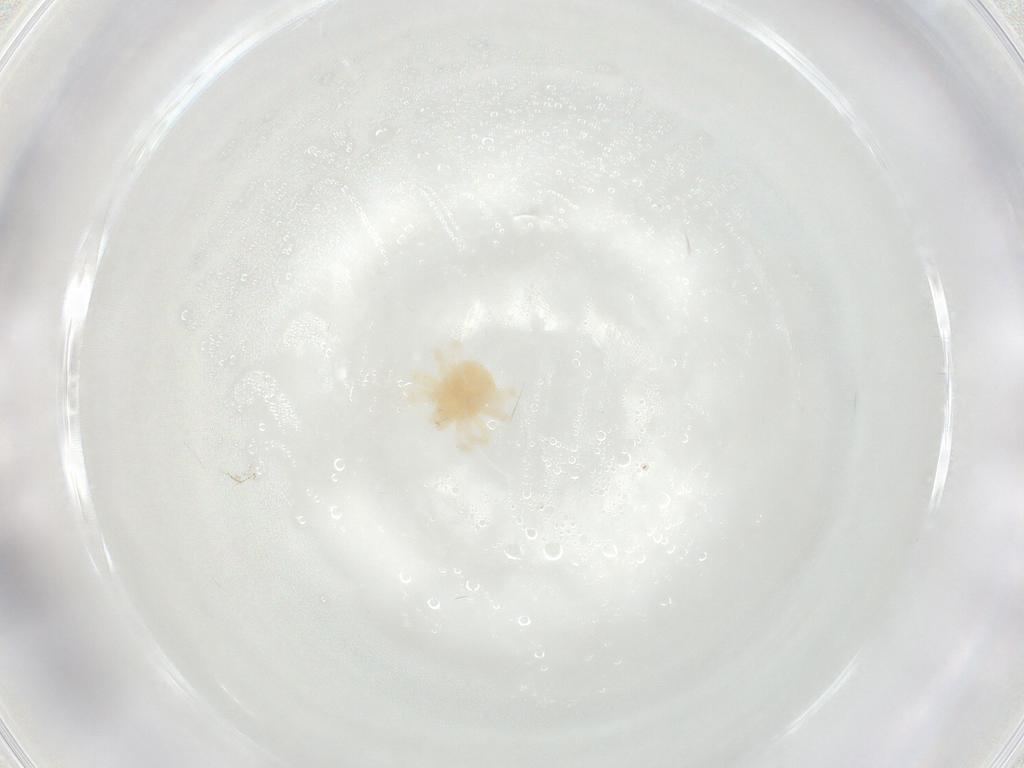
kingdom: Animalia
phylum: Arthropoda
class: Arachnida
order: Trombidiformes
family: Anystidae
